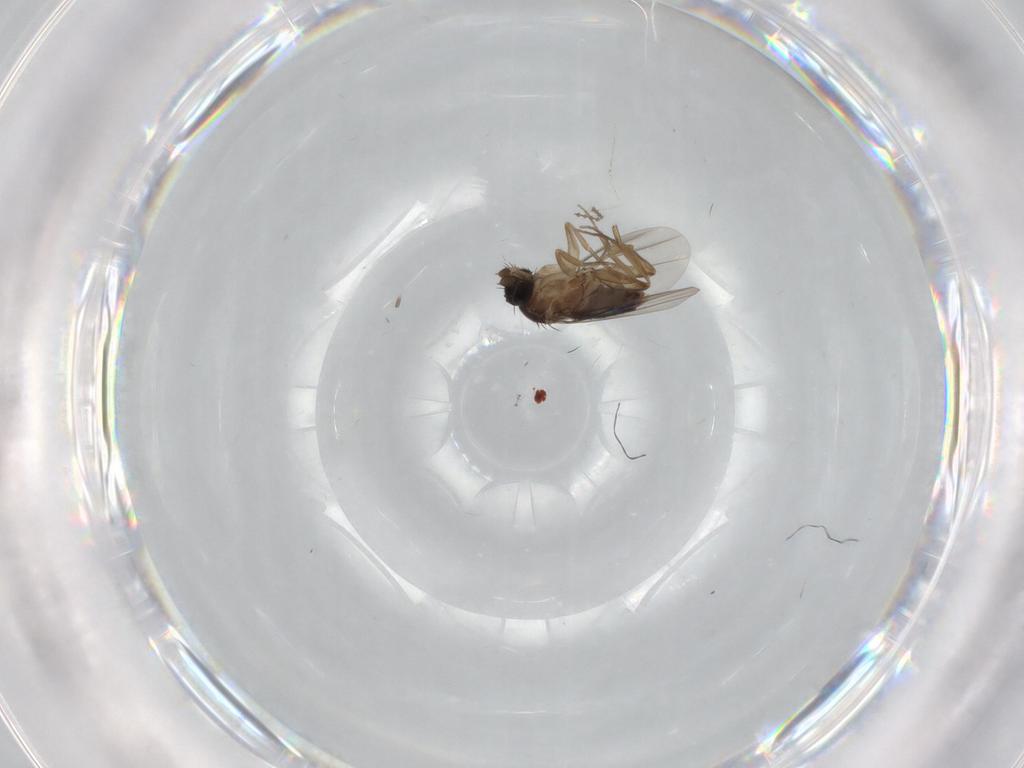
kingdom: Animalia
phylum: Arthropoda
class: Insecta
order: Diptera
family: Phoridae
